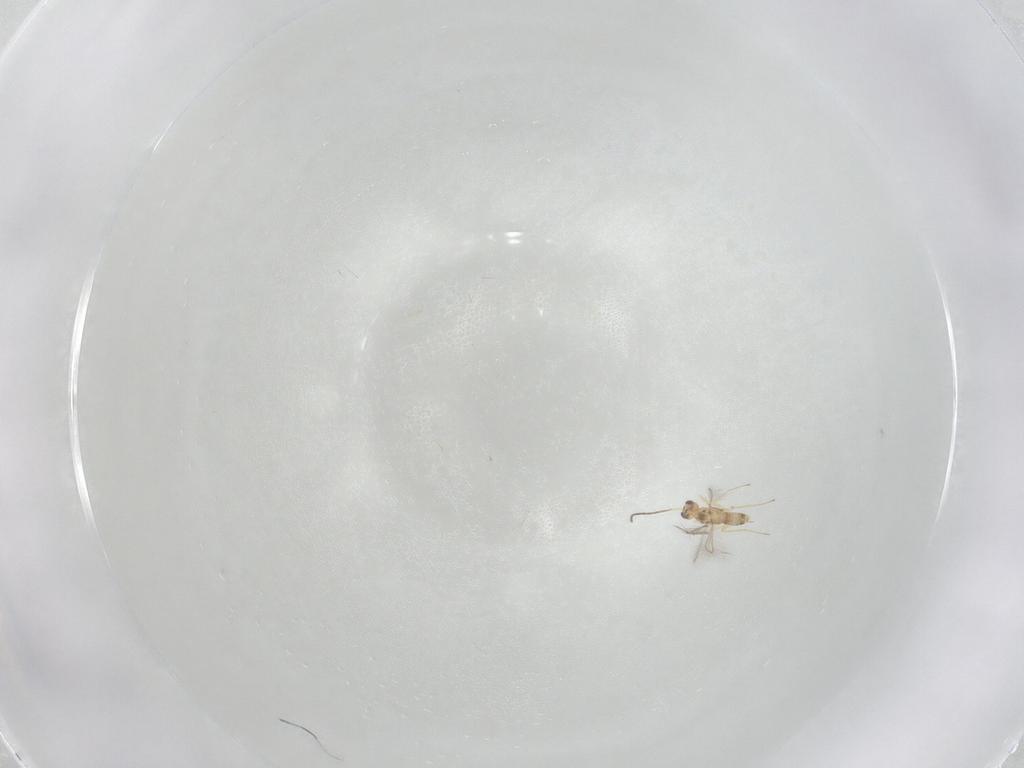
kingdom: Animalia
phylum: Arthropoda
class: Insecta
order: Hymenoptera
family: Mymaridae
